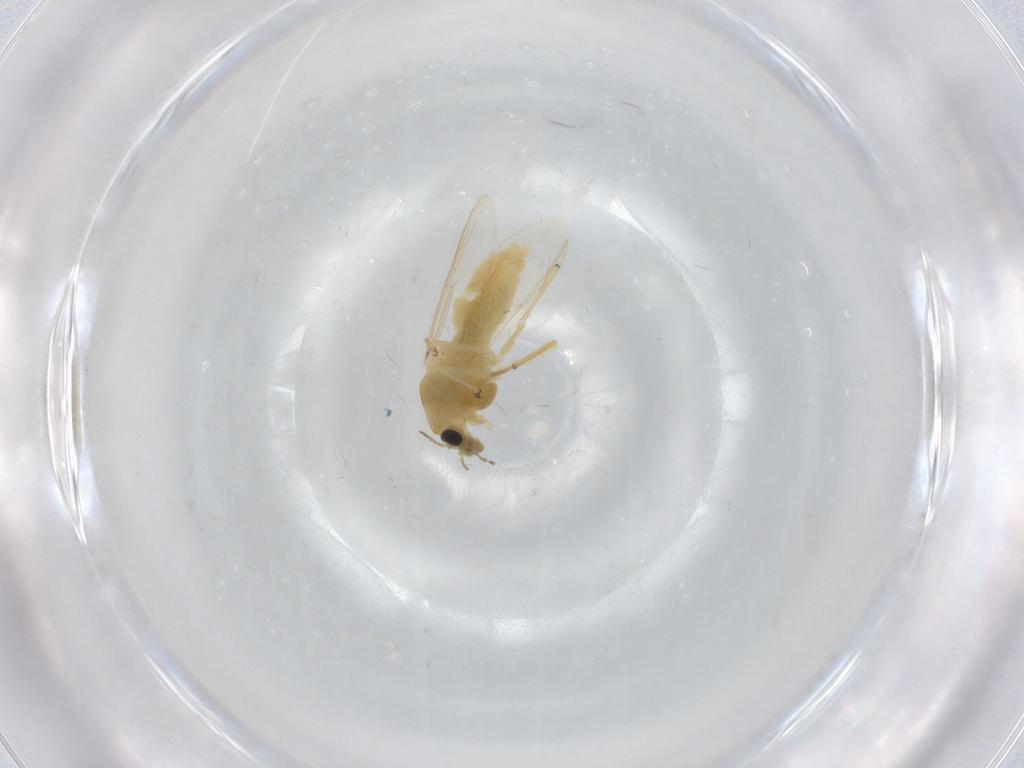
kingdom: Animalia
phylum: Arthropoda
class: Insecta
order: Diptera
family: Chironomidae
